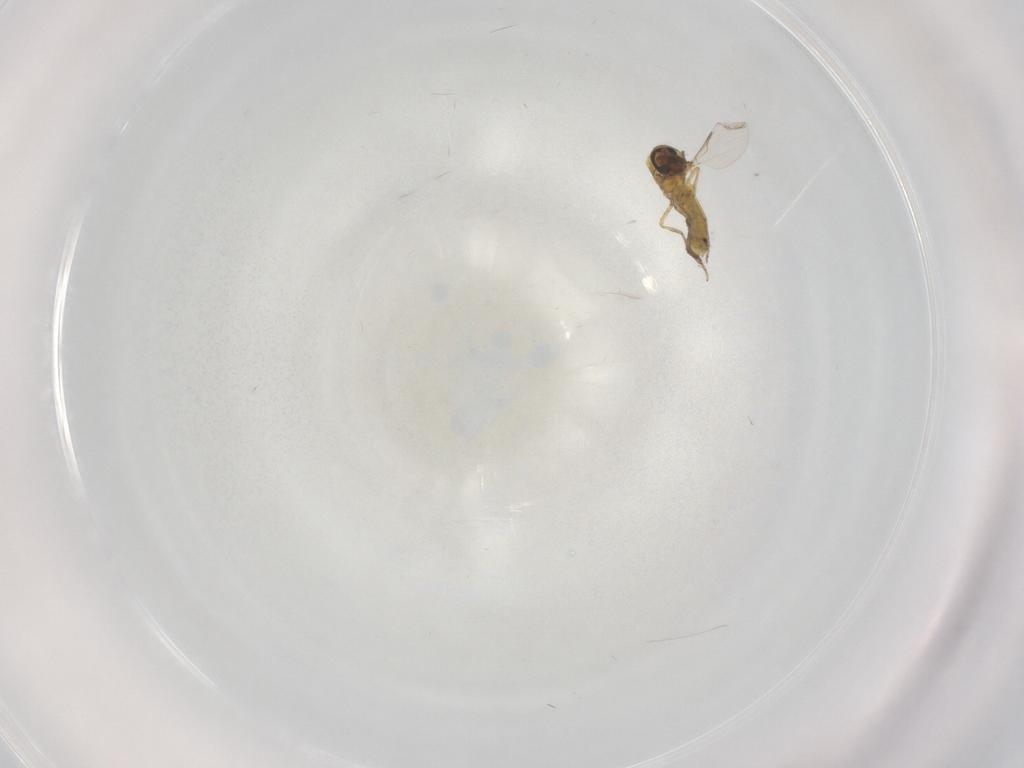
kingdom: Animalia
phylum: Arthropoda
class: Insecta
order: Diptera
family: Ceratopogonidae
